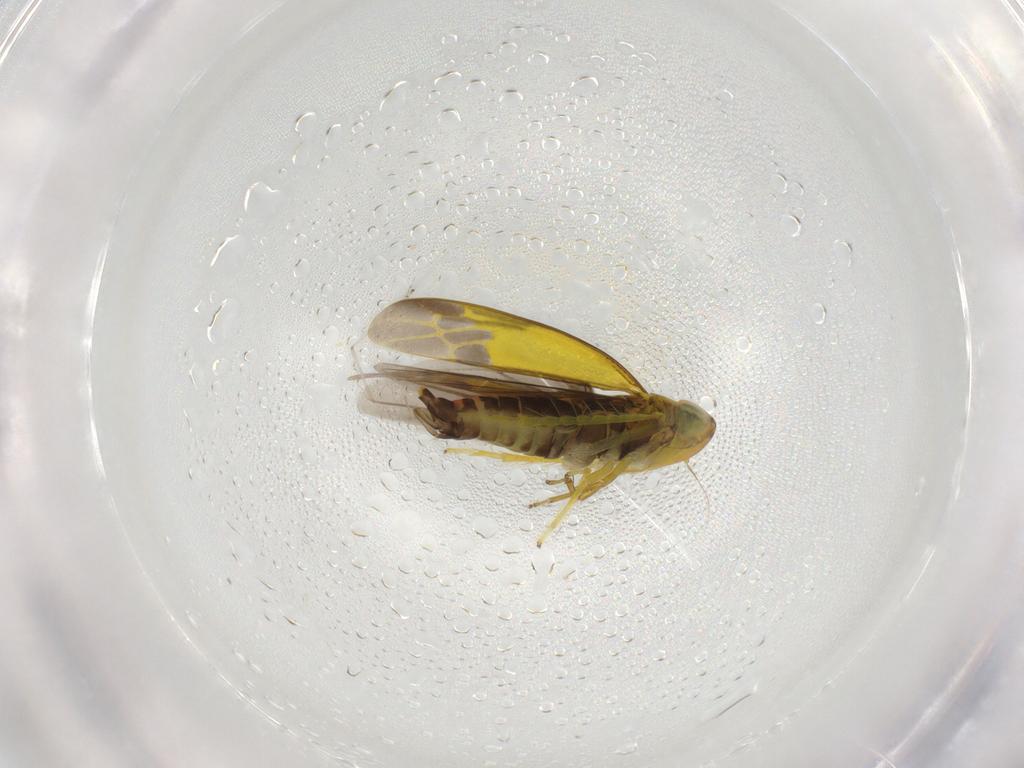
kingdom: Animalia
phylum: Arthropoda
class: Insecta
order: Hemiptera
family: Cicadellidae
